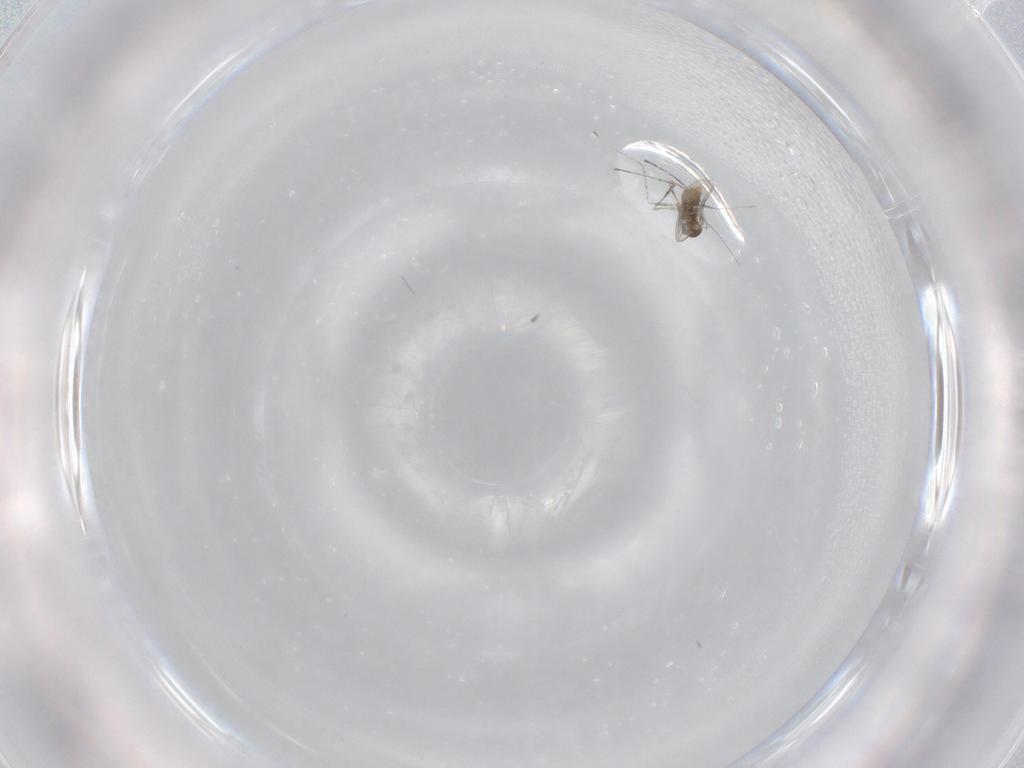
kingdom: Animalia
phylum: Arthropoda
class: Insecta
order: Diptera
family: Cecidomyiidae
